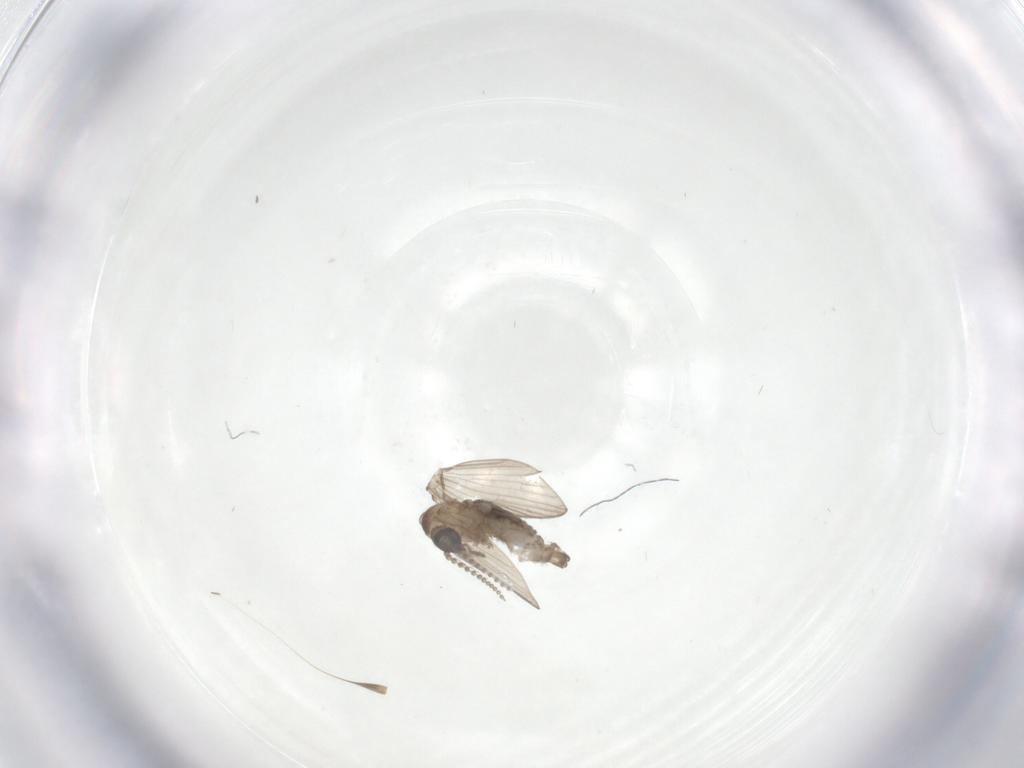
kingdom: Animalia
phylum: Arthropoda
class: Insecta
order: Diptera
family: Psychodidae
